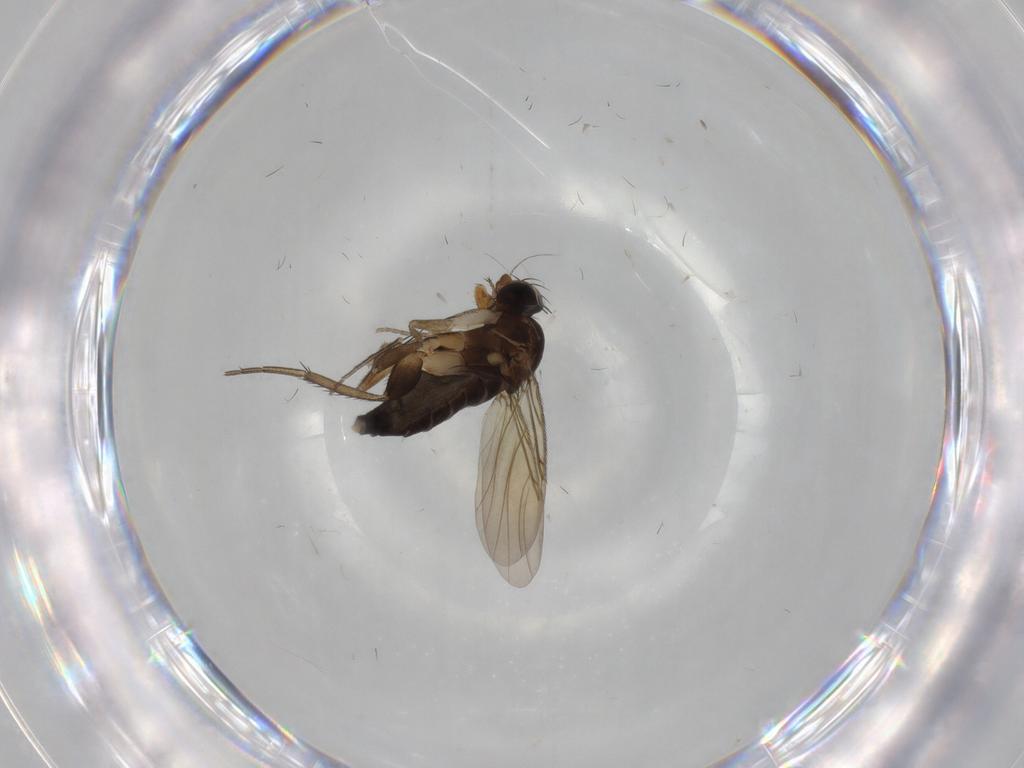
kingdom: Animalia
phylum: Arthropoda
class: Insecta
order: Diptera
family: Phoridae
